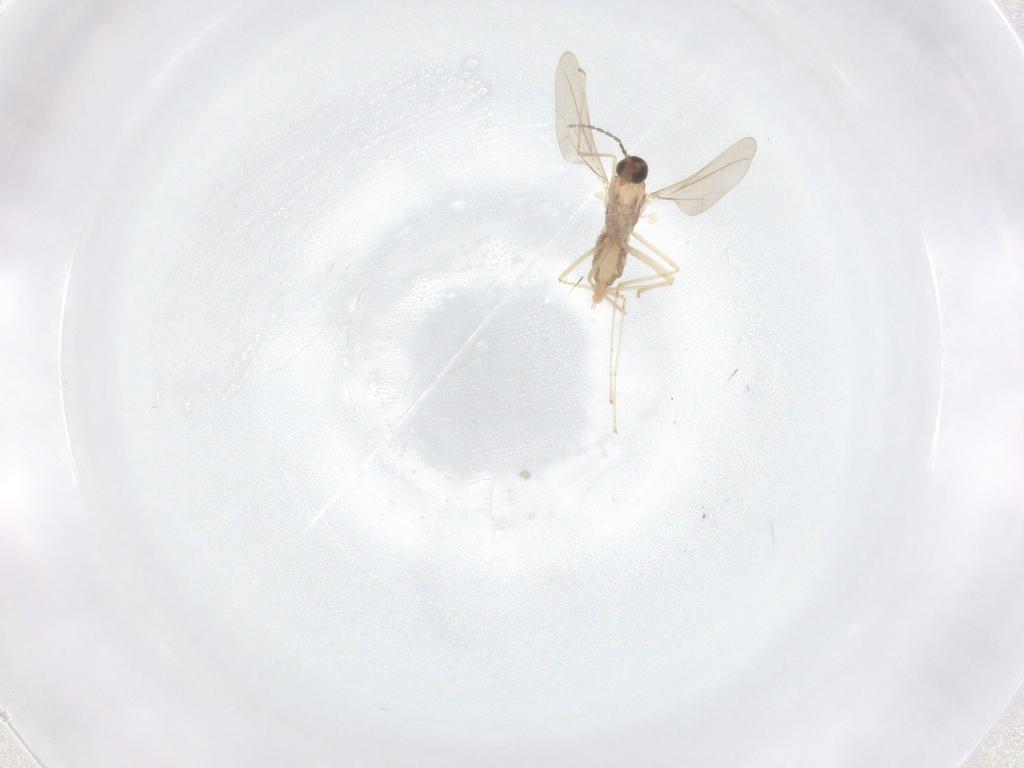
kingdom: Animalia
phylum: Arthropoda
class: Insecta
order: Diptera
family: Cecidomyiidae
